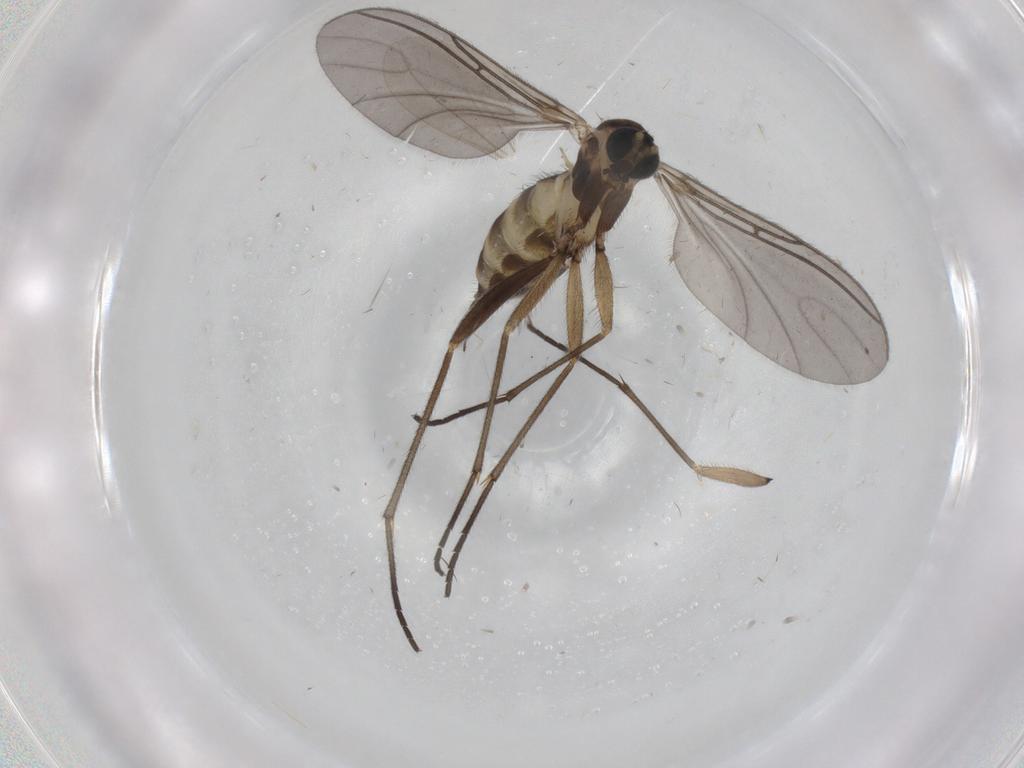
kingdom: Animalia
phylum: Arthropoda
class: Insecta
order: Diptera
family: Sciaridae
